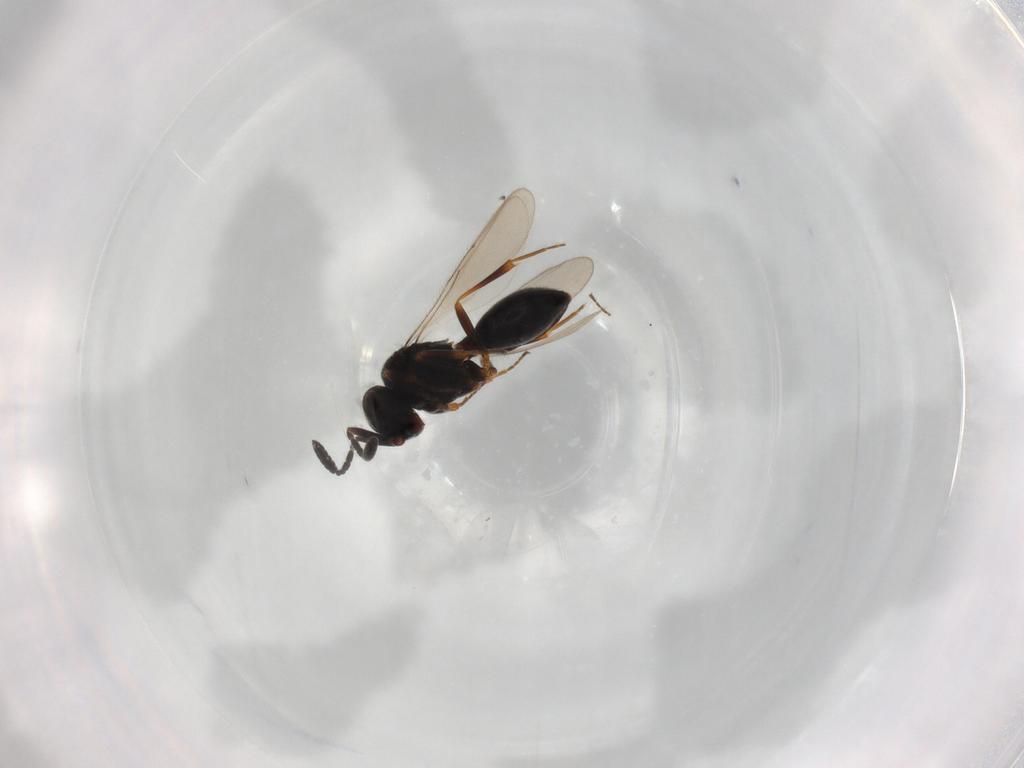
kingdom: Animalia
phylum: Arthropoda
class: Insecta
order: Hymenoptera
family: Scelionidae
